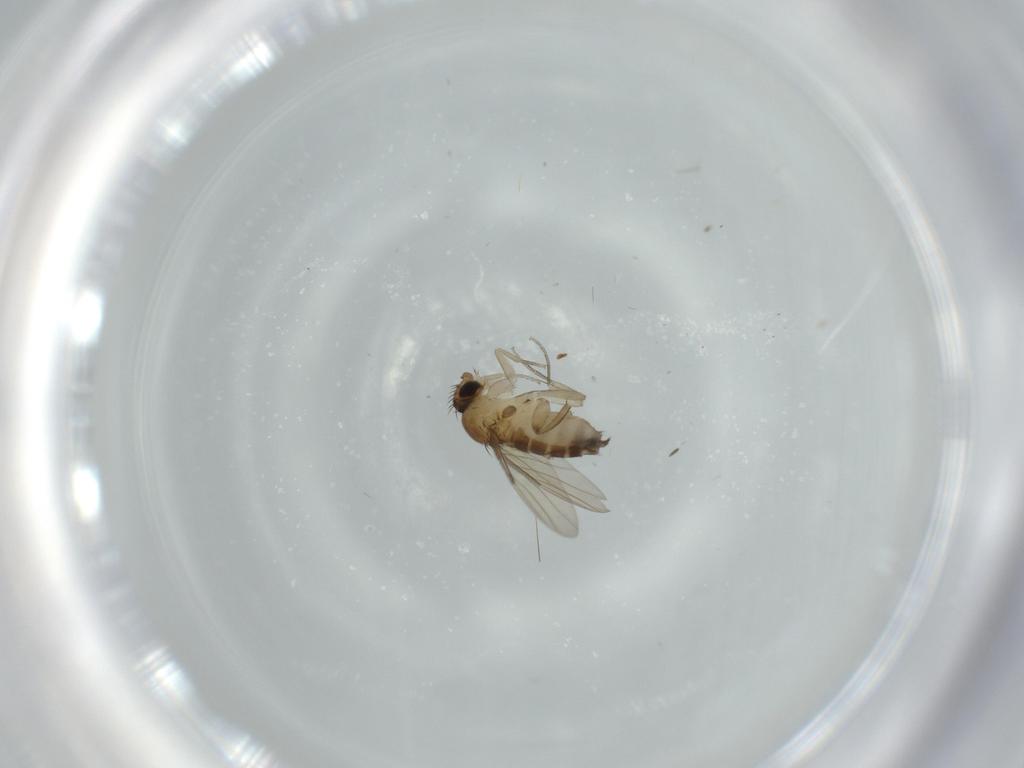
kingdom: Animalia
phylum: Arthropoda
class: Insecta
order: Diptera
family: Phoridae
